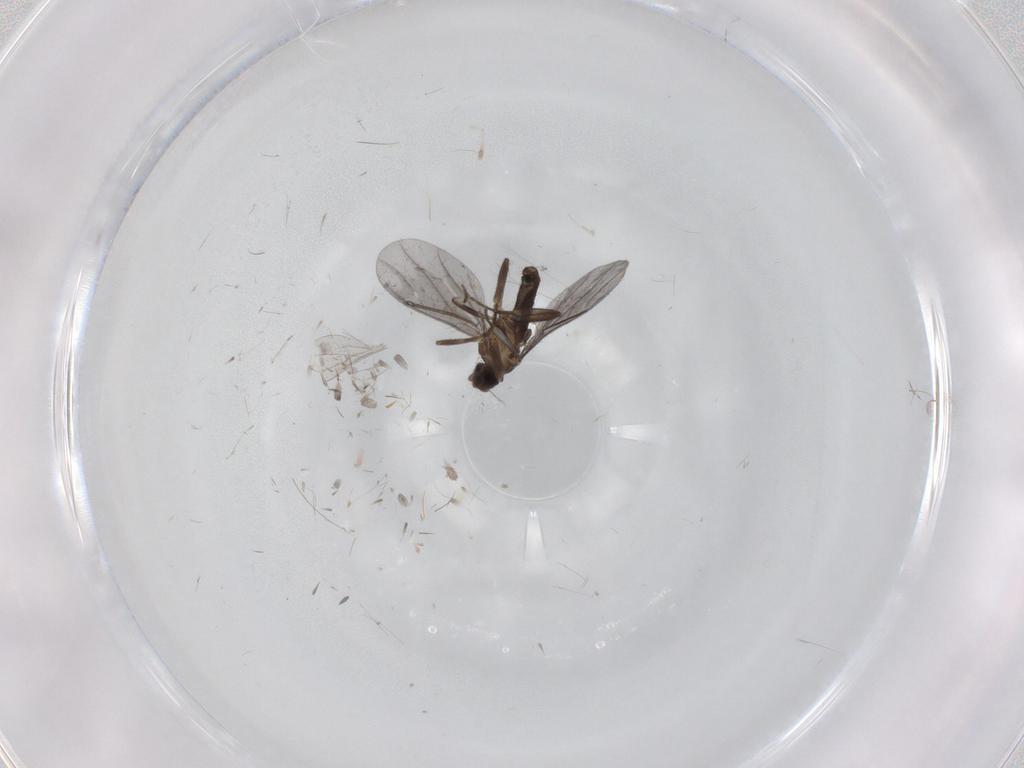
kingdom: Animalia
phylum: Arthropoda
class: Insecta
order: Diptera
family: Phoridae
